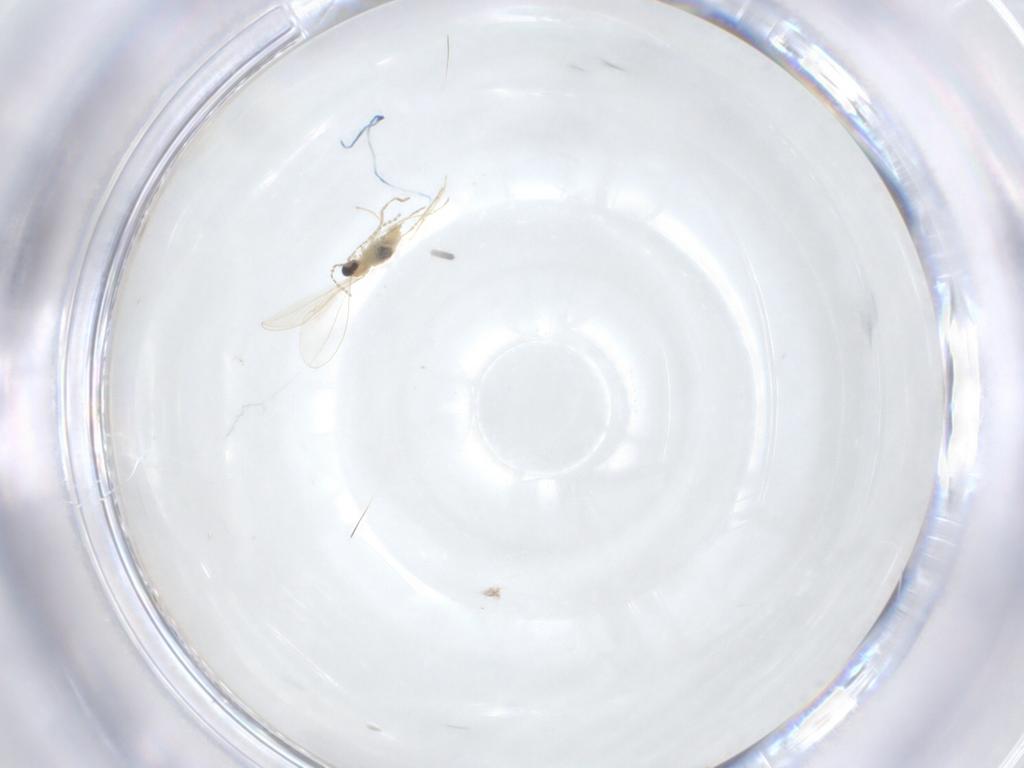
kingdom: Animalia
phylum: Arthropoda
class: Insecta
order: Diptera
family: Cecidomyiidae
